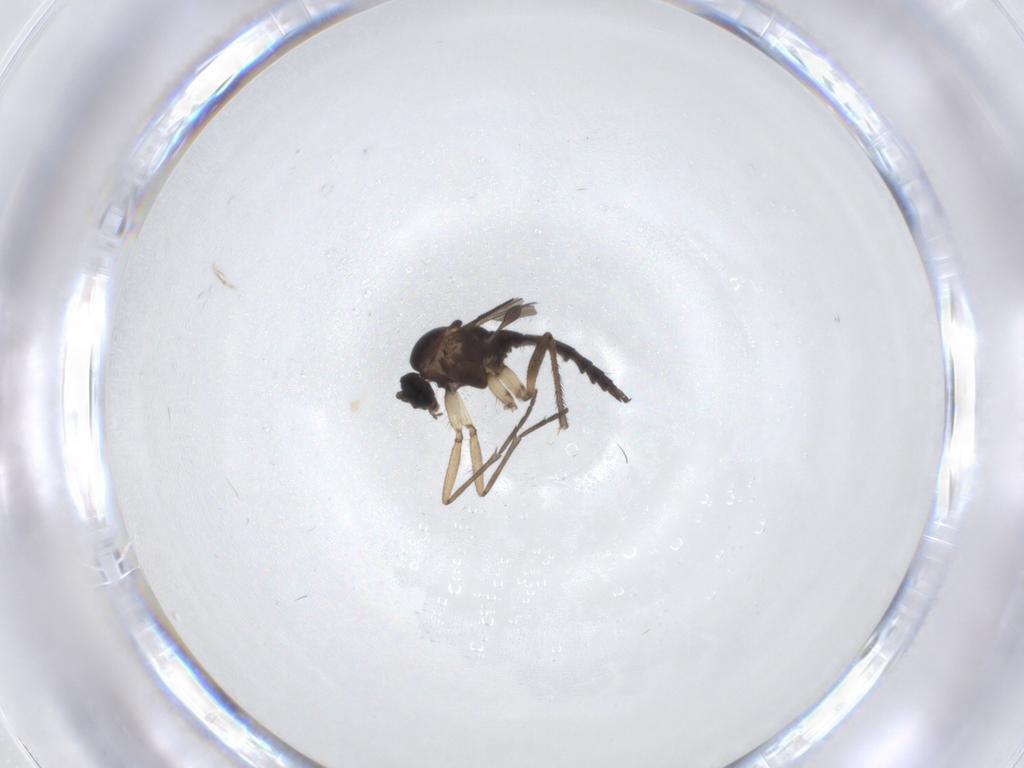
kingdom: Animalia
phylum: Arthropoda
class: Insecta
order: Diptera
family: Sciaridae
